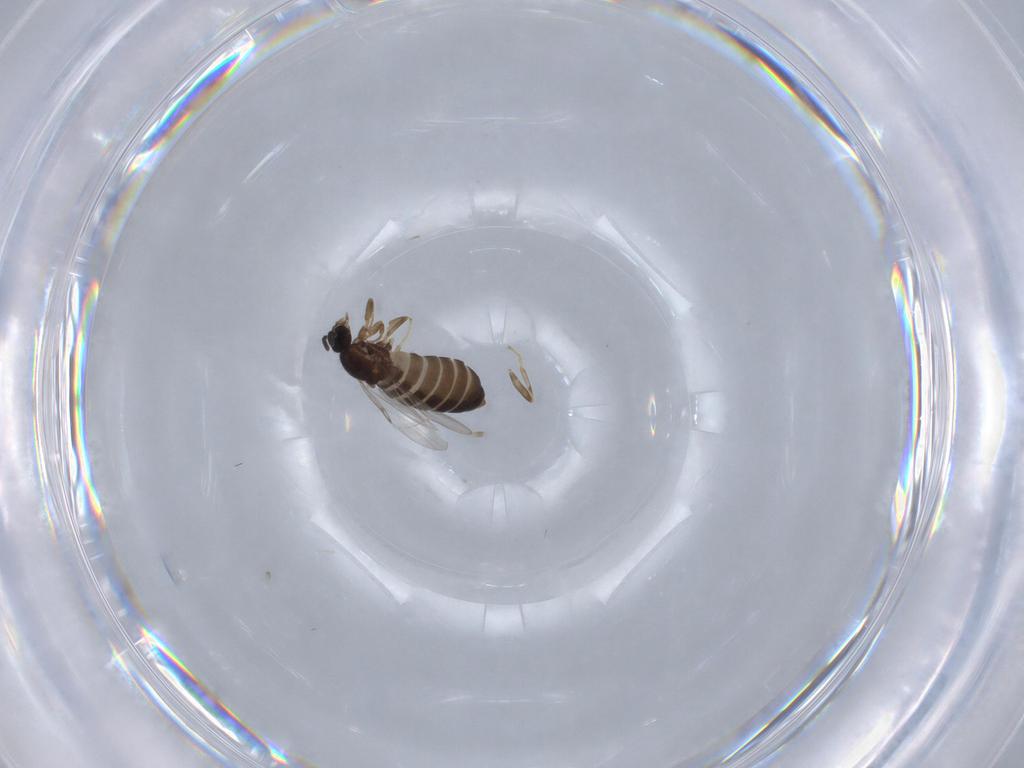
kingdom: Animalia
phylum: Arthropoda
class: Insecta
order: Diptera
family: Scatopsidae
